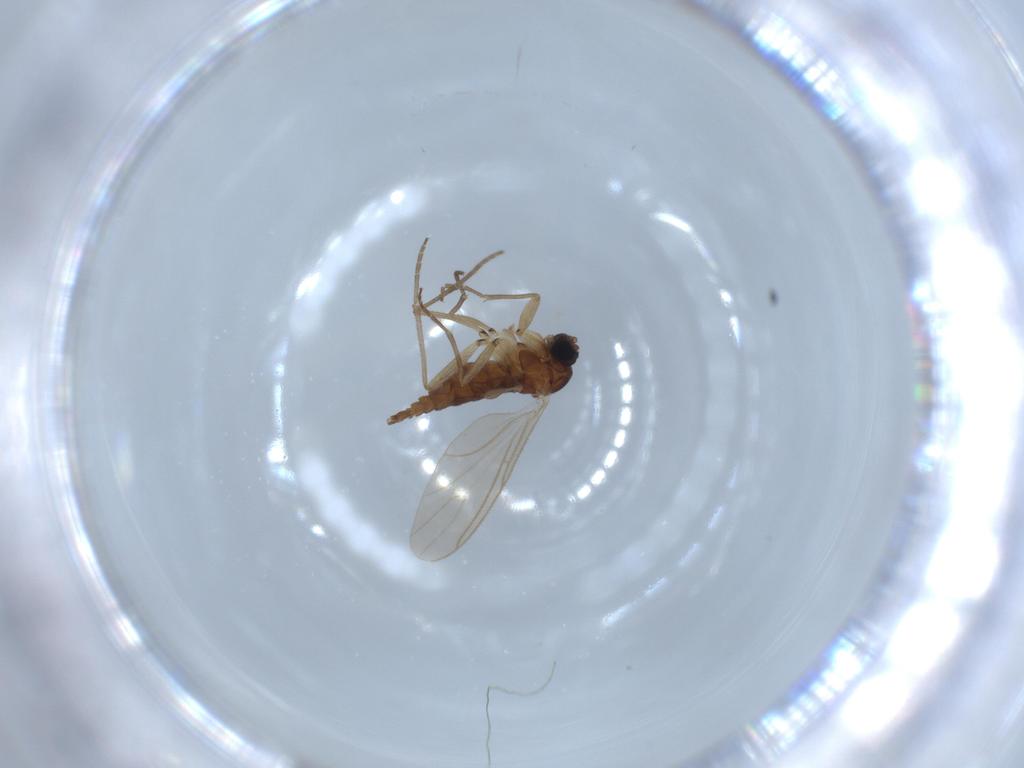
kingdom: Animalia
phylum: Arthropoda
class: Insecta
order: Diptera
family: Sciaridae
